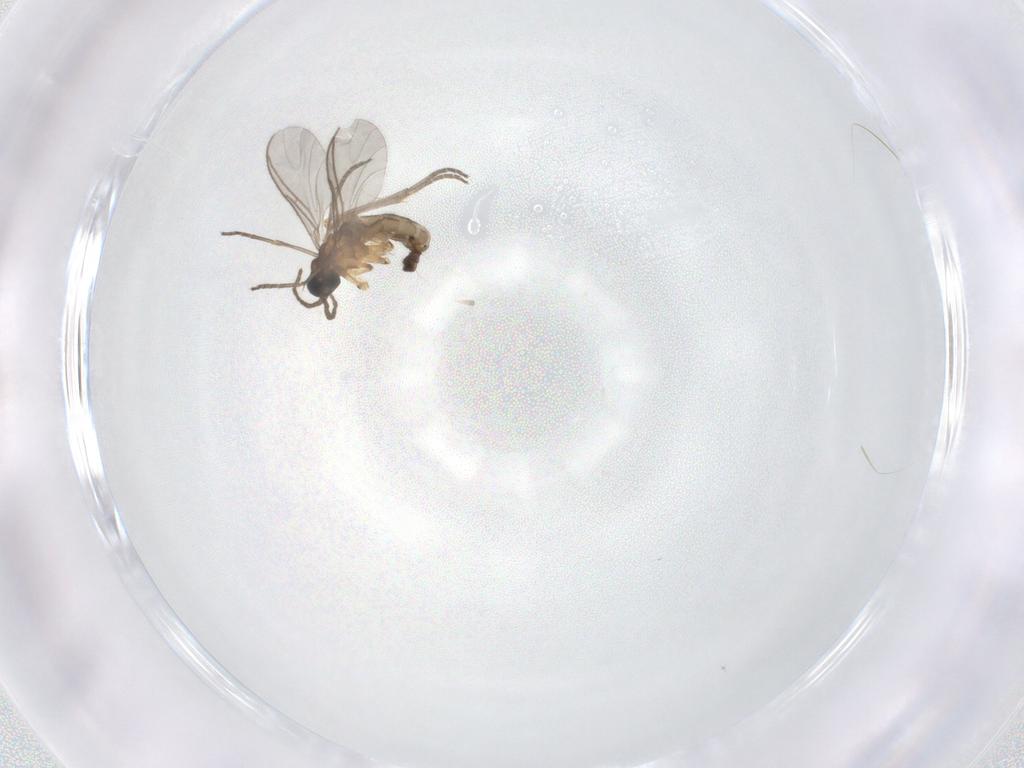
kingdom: Animalia
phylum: Arthropoda
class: Insecta
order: Diptera
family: Sciaridae
